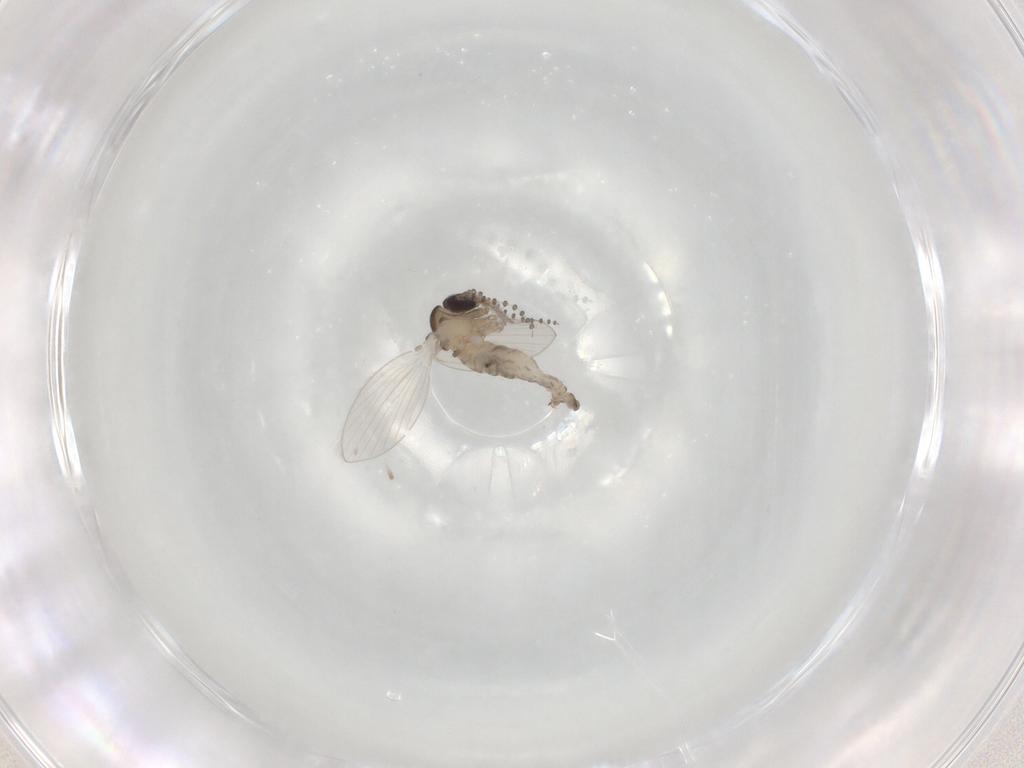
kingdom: Animalia
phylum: Arthropoda
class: Insecta
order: Diptera
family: Psychodidae
